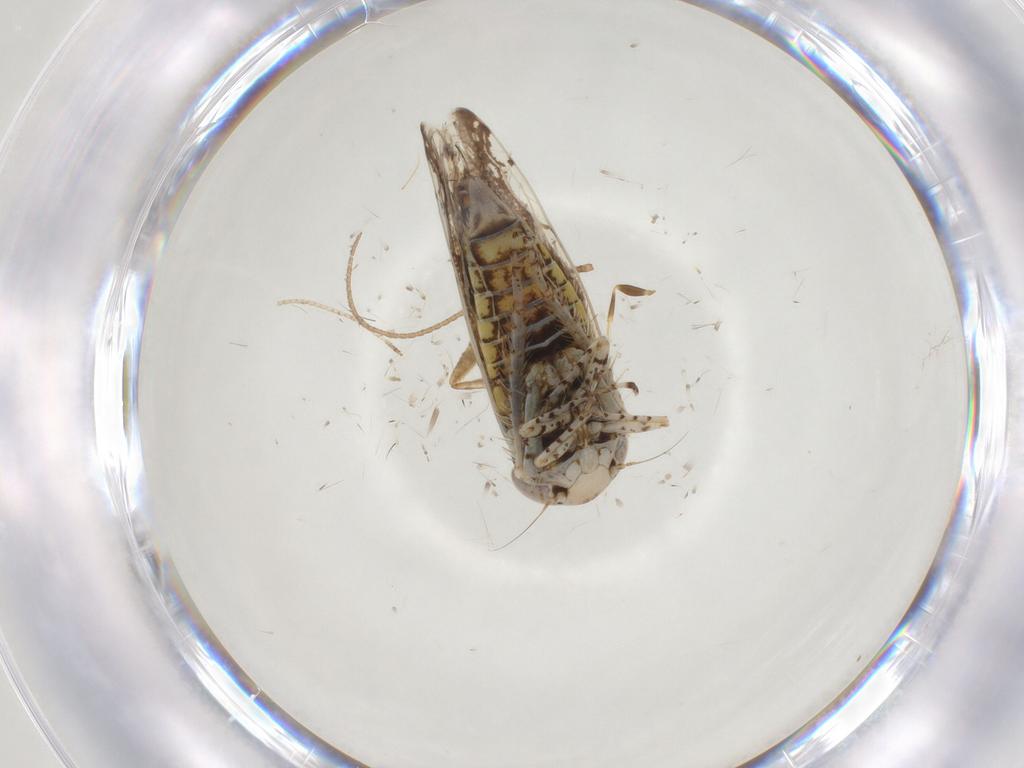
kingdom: Animalia
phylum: Arthropoda
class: Insecta
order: Hemiptera
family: Cicadellidae
